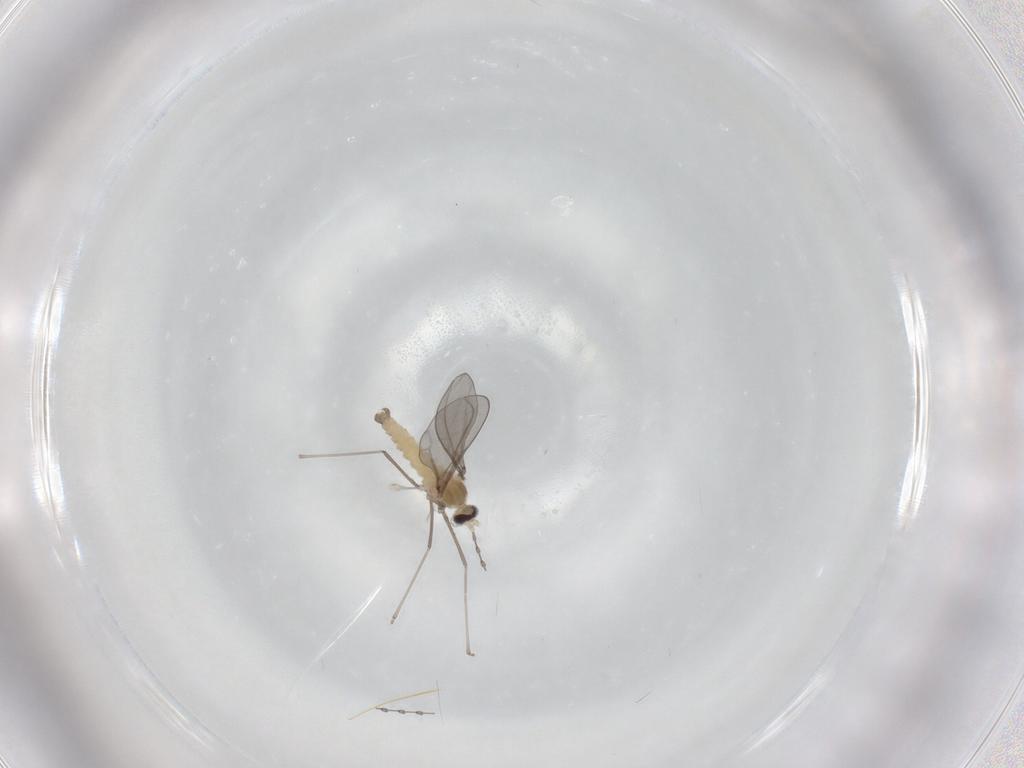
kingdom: Animalia
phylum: Arthropoda
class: Insecta
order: Diptera
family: Cecidomyiidae
